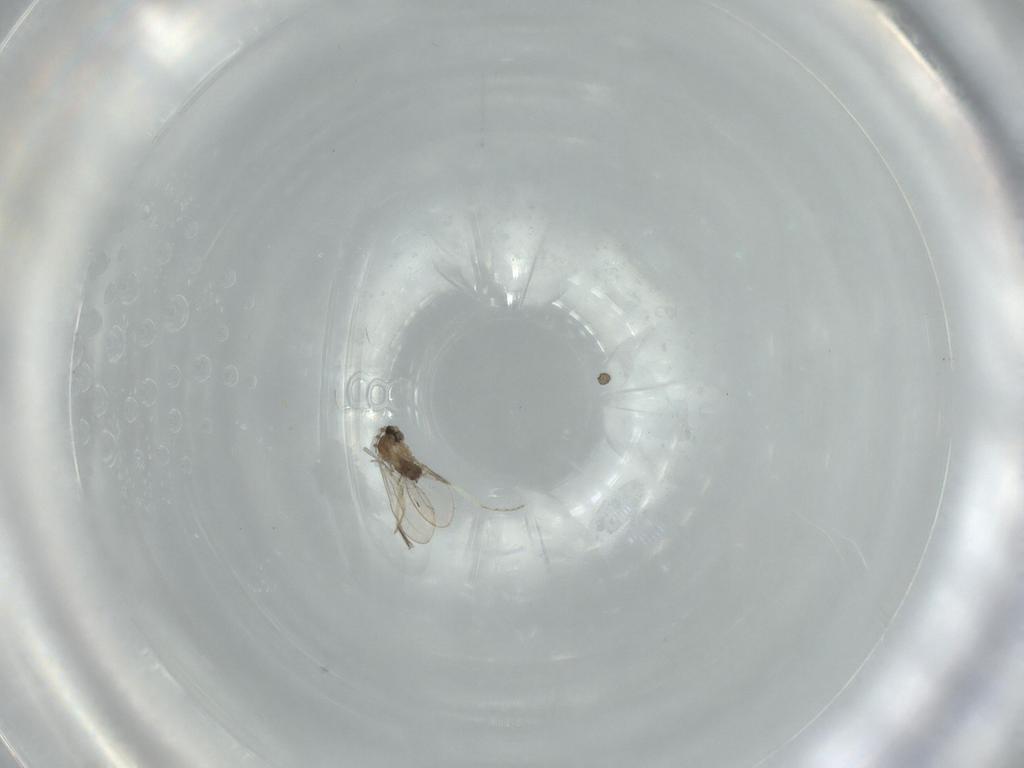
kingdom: Animalia
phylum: Arthropoda
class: Insecta
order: Diptera
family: Cecidomyiidae
